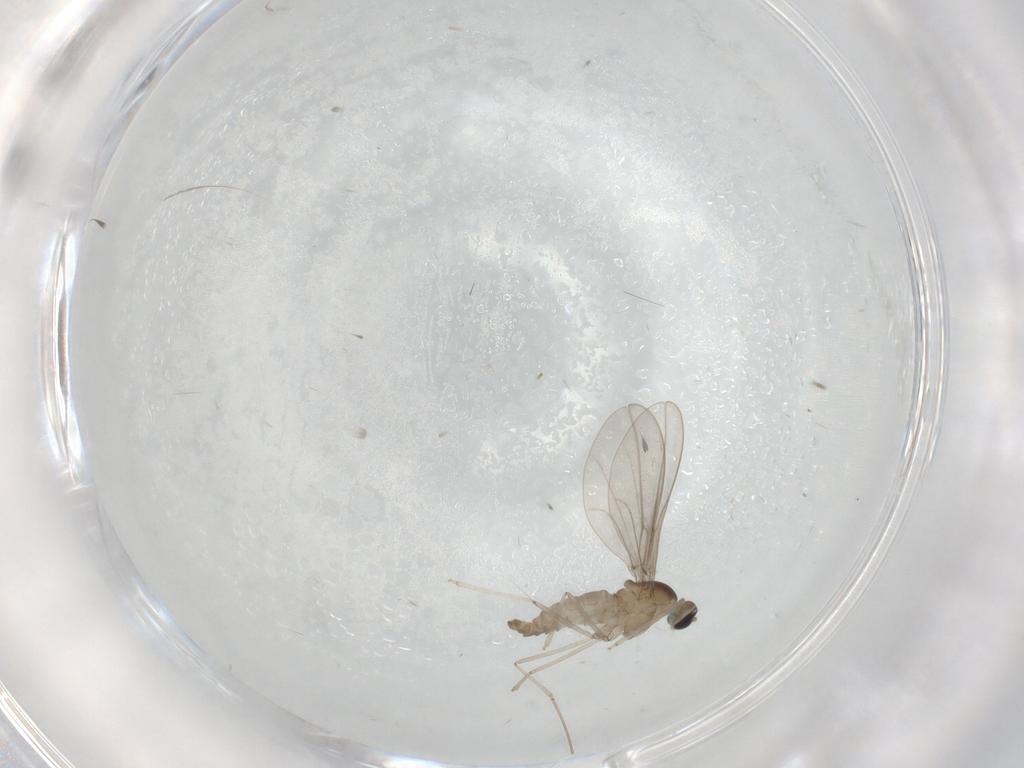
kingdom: Animalia
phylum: Arthropoda
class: Insecta
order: Diptera
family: Cecidomyiidae
